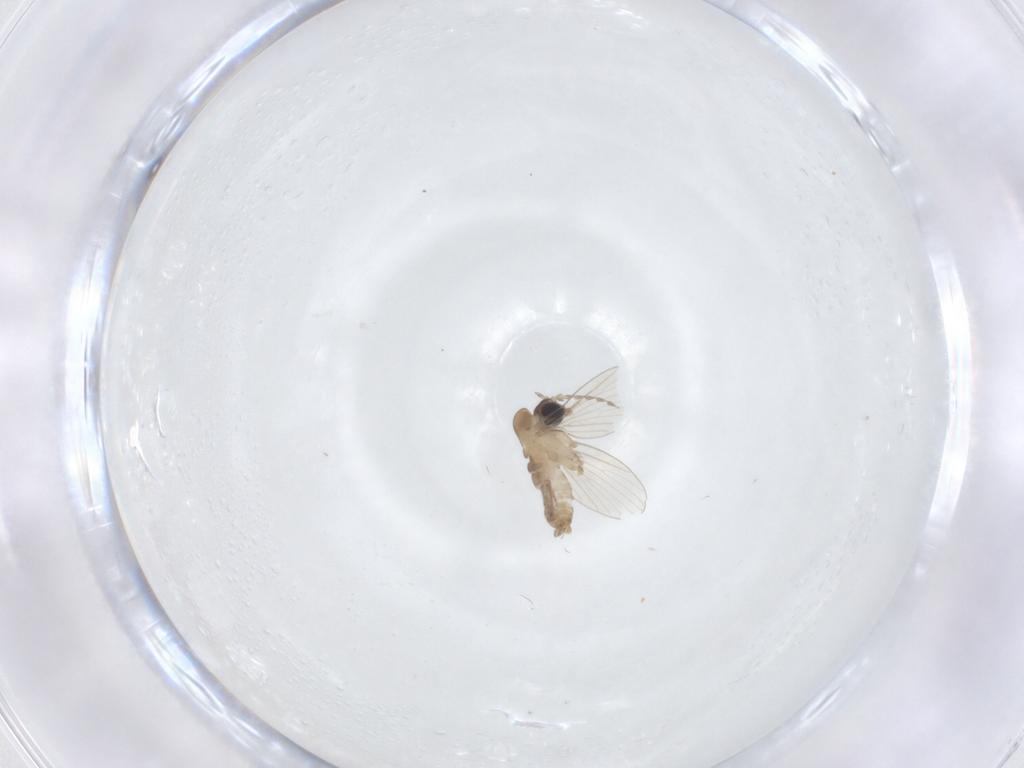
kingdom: Animalia
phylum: Arthropoda
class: Insecta
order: Diptera
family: Psychodidae
